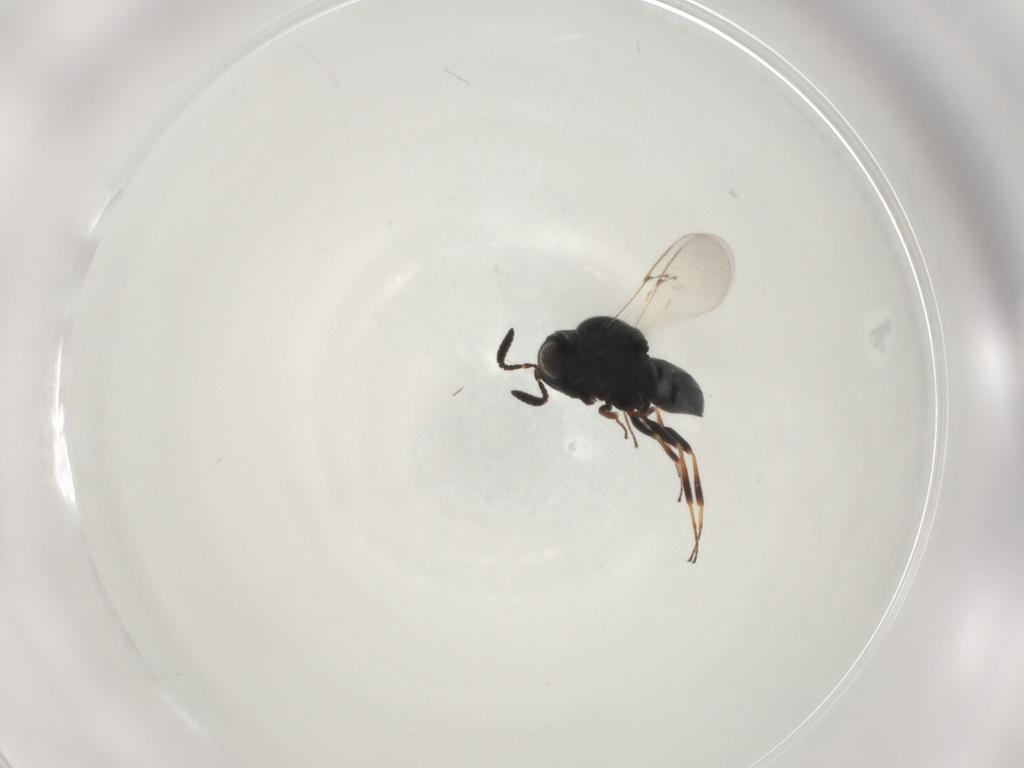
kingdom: Animalia
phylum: Arthropoda
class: Insecta
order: Hymenoptera
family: Scelionidae
